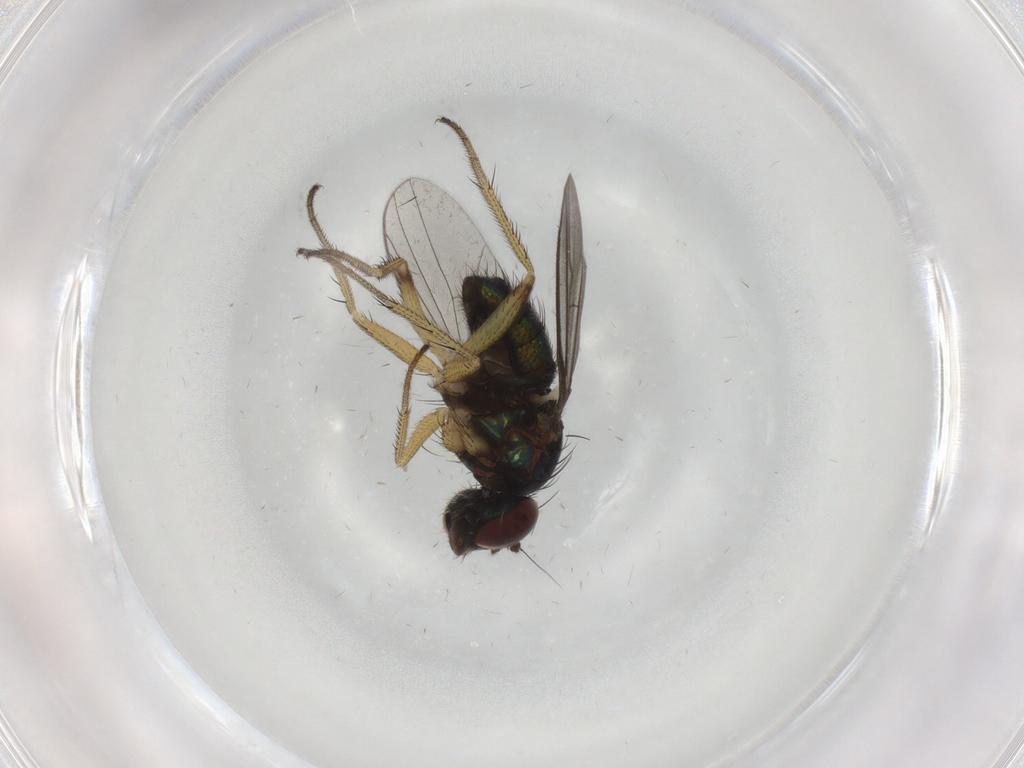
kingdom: Animalia
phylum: Arthropoda
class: Insecta
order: Diptera
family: Dolichopodidae
